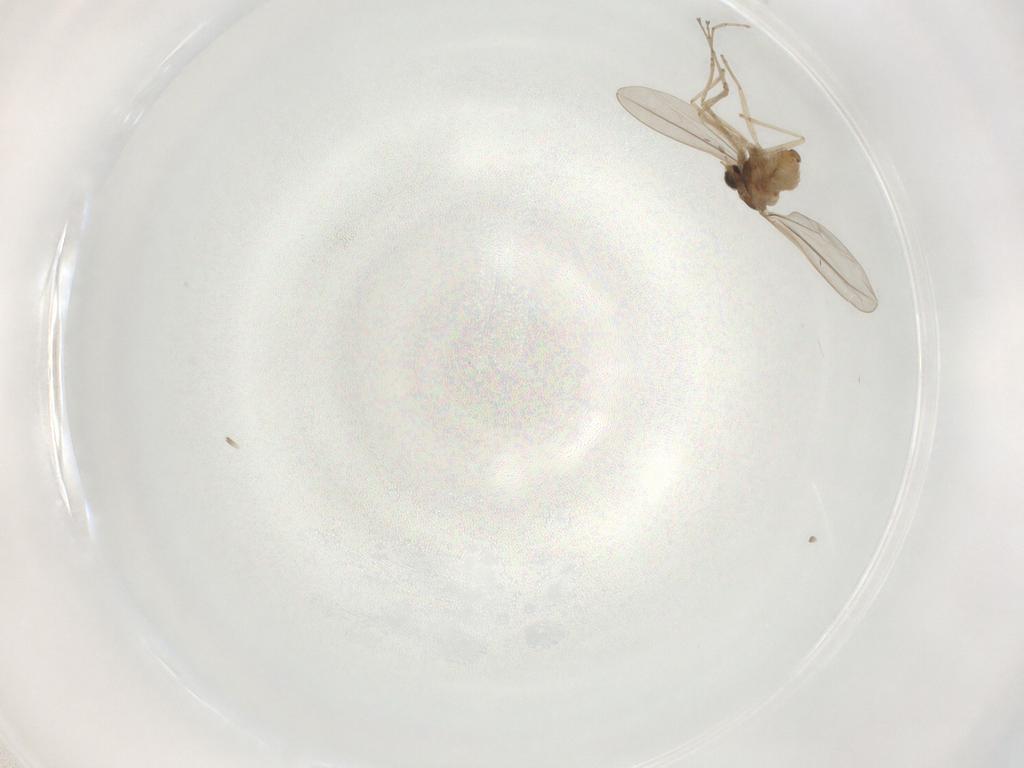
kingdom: Animalia
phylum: Arthropoda
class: Insecta
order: Diptera
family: Cecidomyiidae
